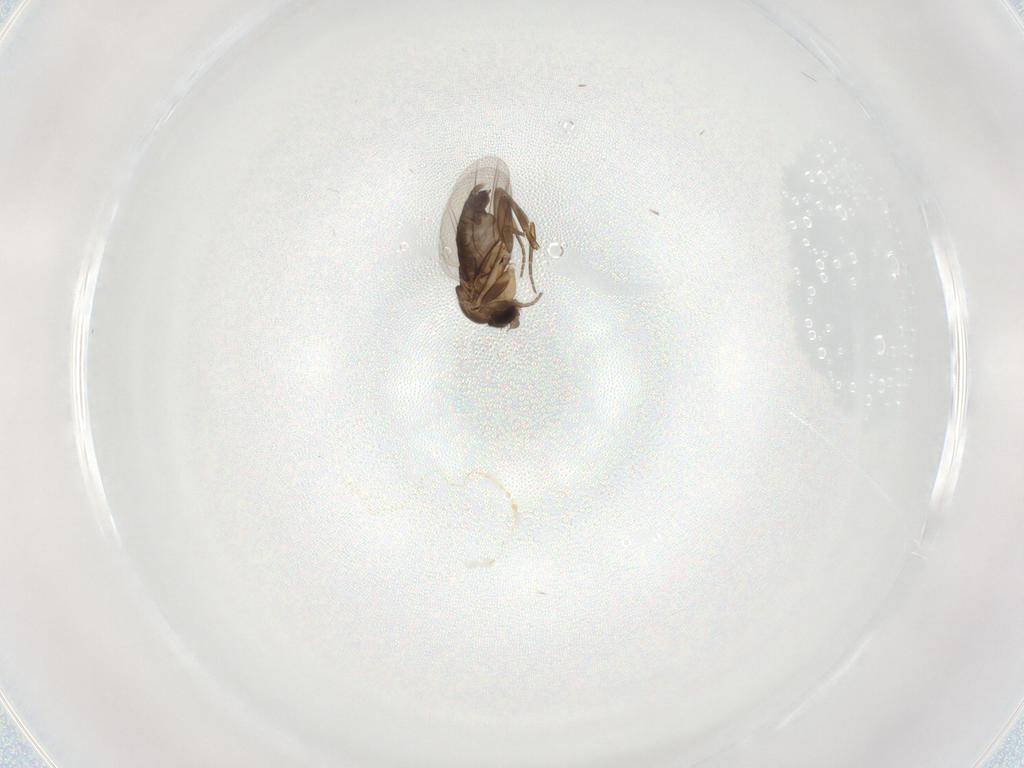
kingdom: Animalia
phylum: Arthropoda
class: Insecta
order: Diptera
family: Phoridae
